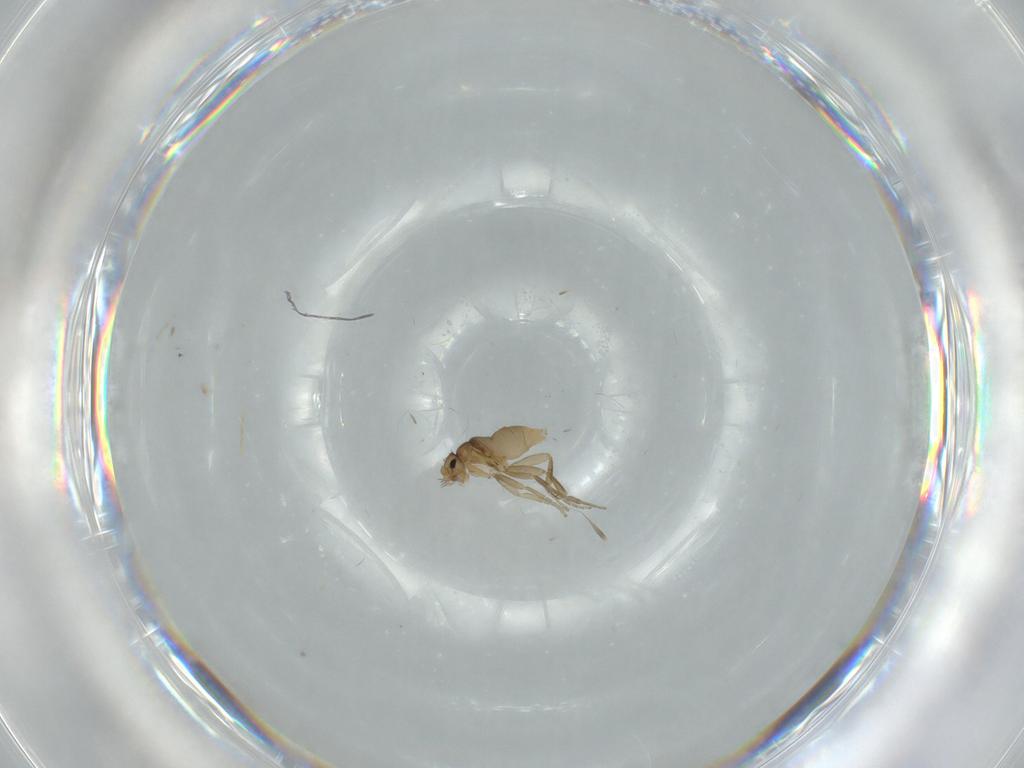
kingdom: Animalia
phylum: Arthropoda
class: Insecta
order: Diptera
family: Phoridae
